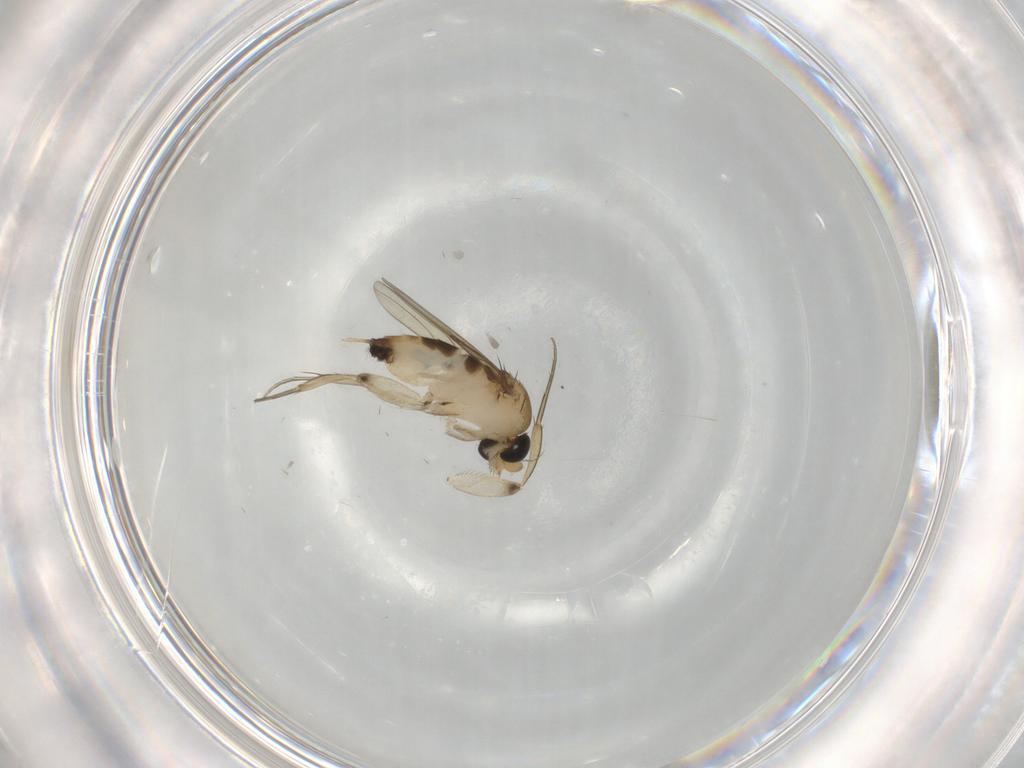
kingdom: Animalia
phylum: Arthropoda
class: Insecta
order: Diptera
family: Phoridae
